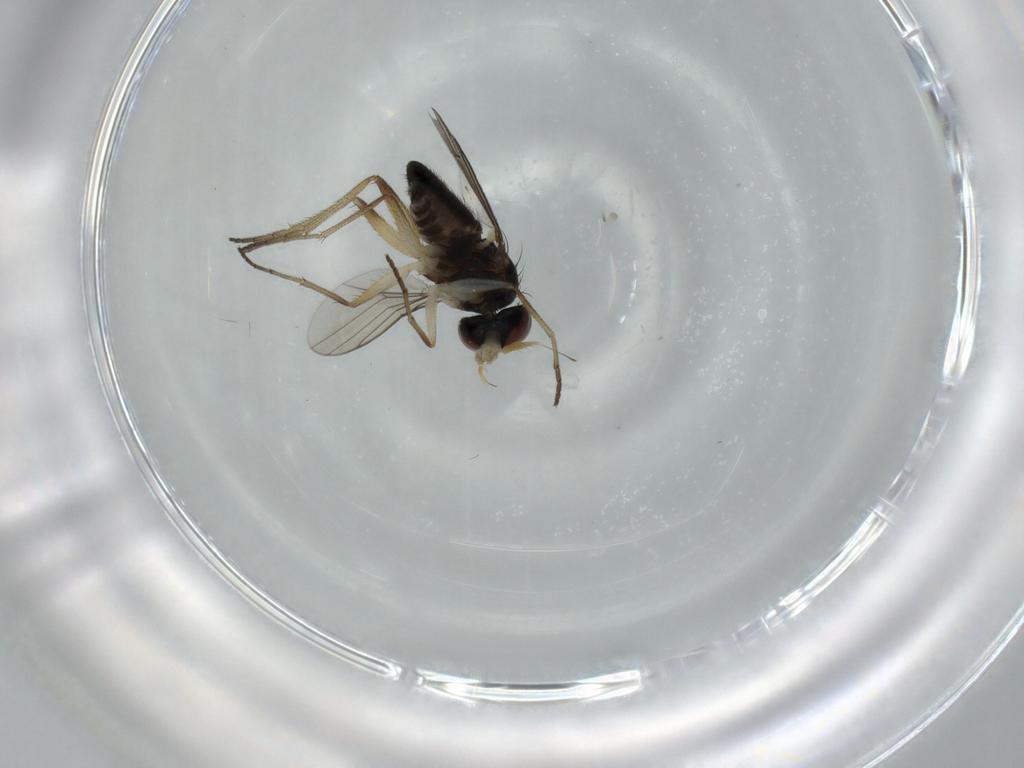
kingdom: Animalia
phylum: Arthropoda
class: Insecta
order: Diptera
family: Dolichopodidae
